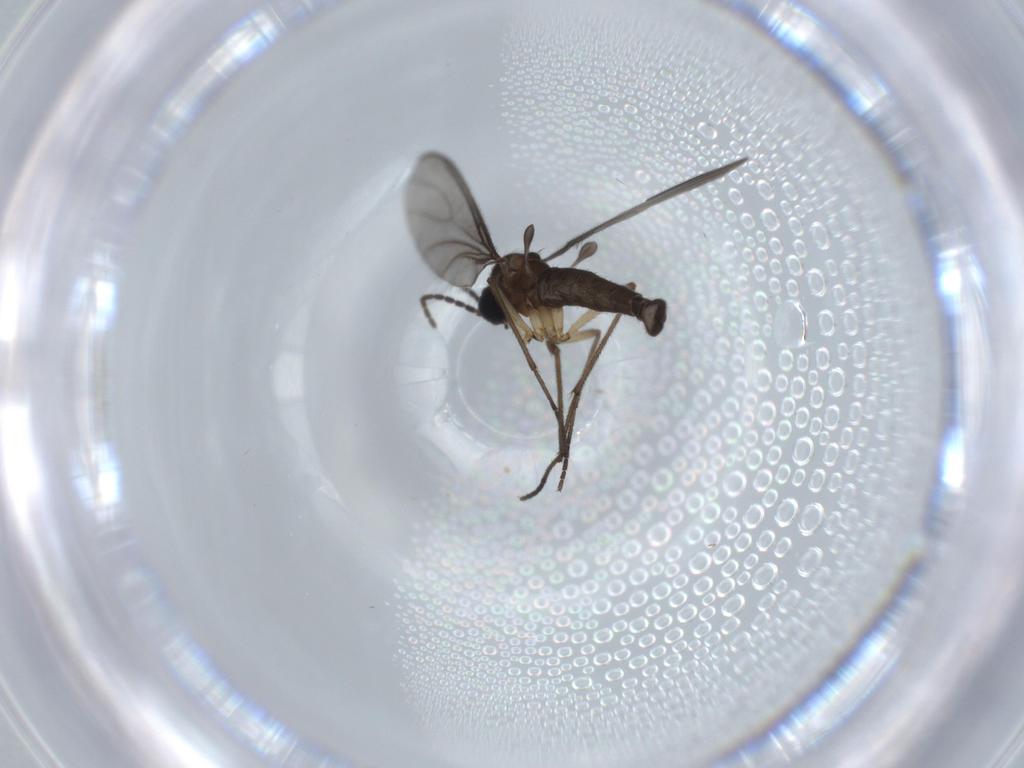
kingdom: Animalia
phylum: Arthropoda
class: Insecta
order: Diptera
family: Sciaridae
